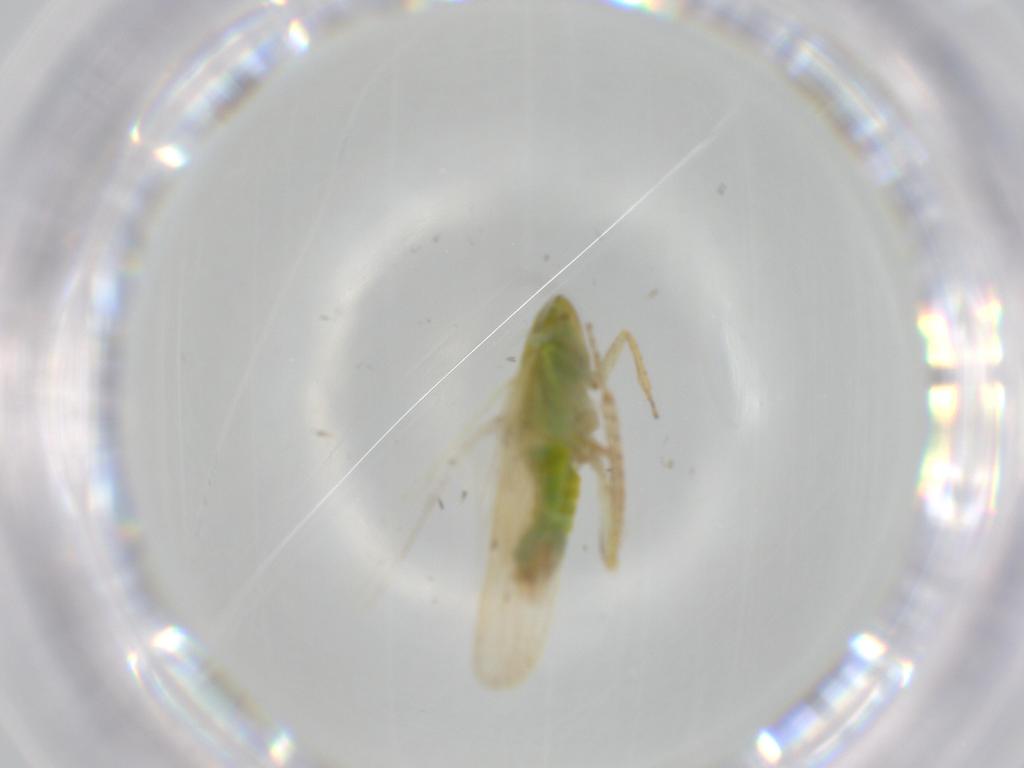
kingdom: Animalia
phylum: Arthropoda
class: Insecta
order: Hemiptera
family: Cicadellidae
